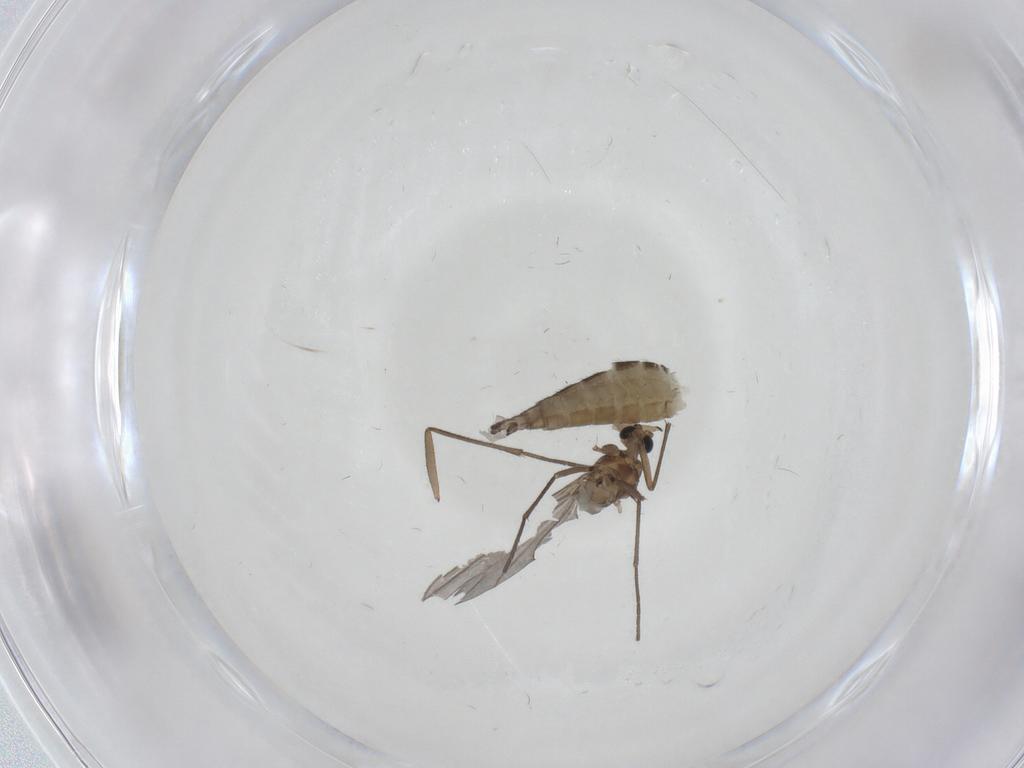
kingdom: Animalia
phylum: Arthropoda
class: Insecta
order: Diptera
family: Sciaridae
